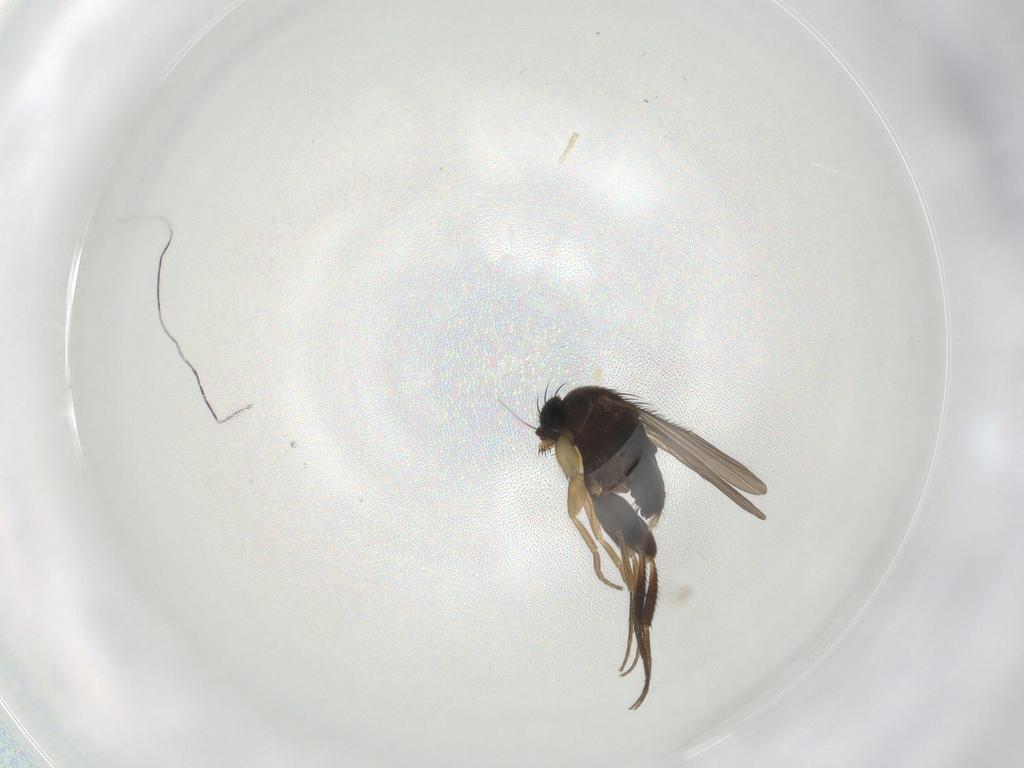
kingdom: Animalia
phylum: Arthropoda
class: Insecta
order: Diptera
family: Phoridae
